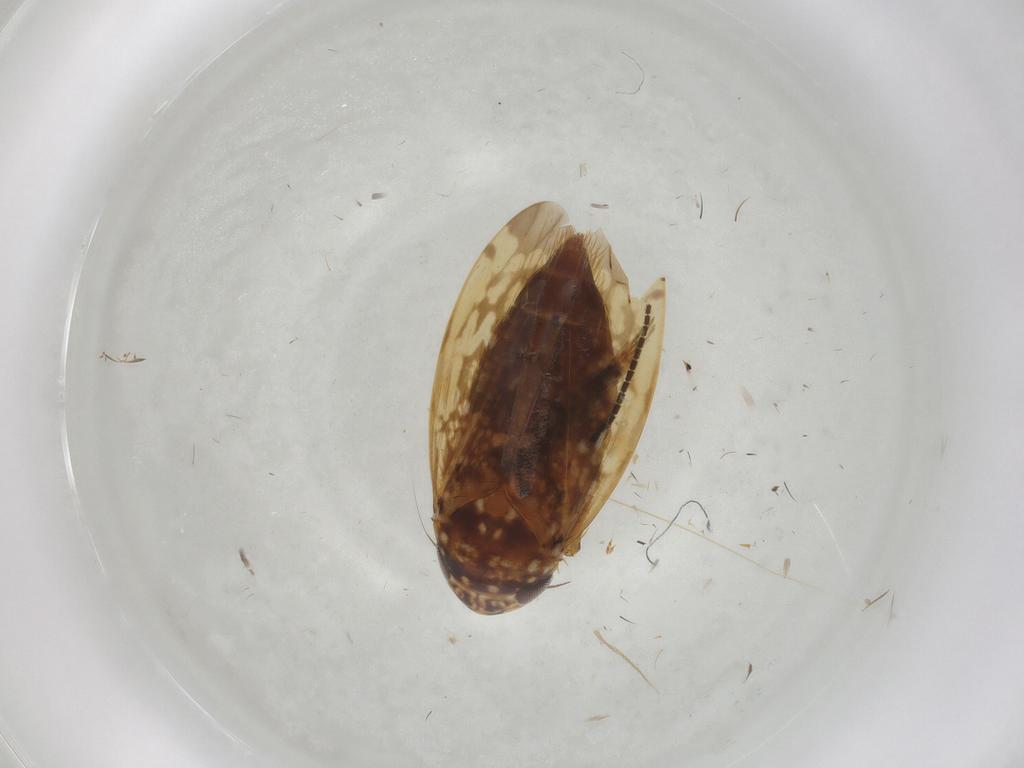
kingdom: Animalia
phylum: Arthropoda
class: Insecta
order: Hemiptera
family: Cicadellidae
